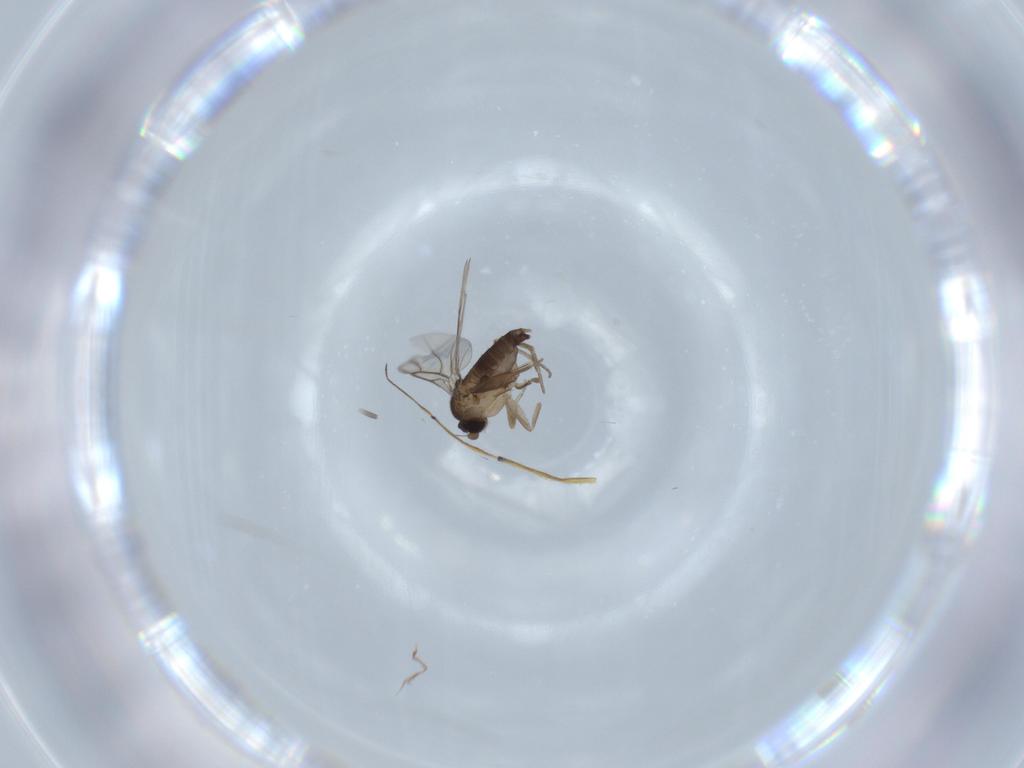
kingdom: Animalia
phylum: Arthropoda
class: Insecta
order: Diptera
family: Phoridae
